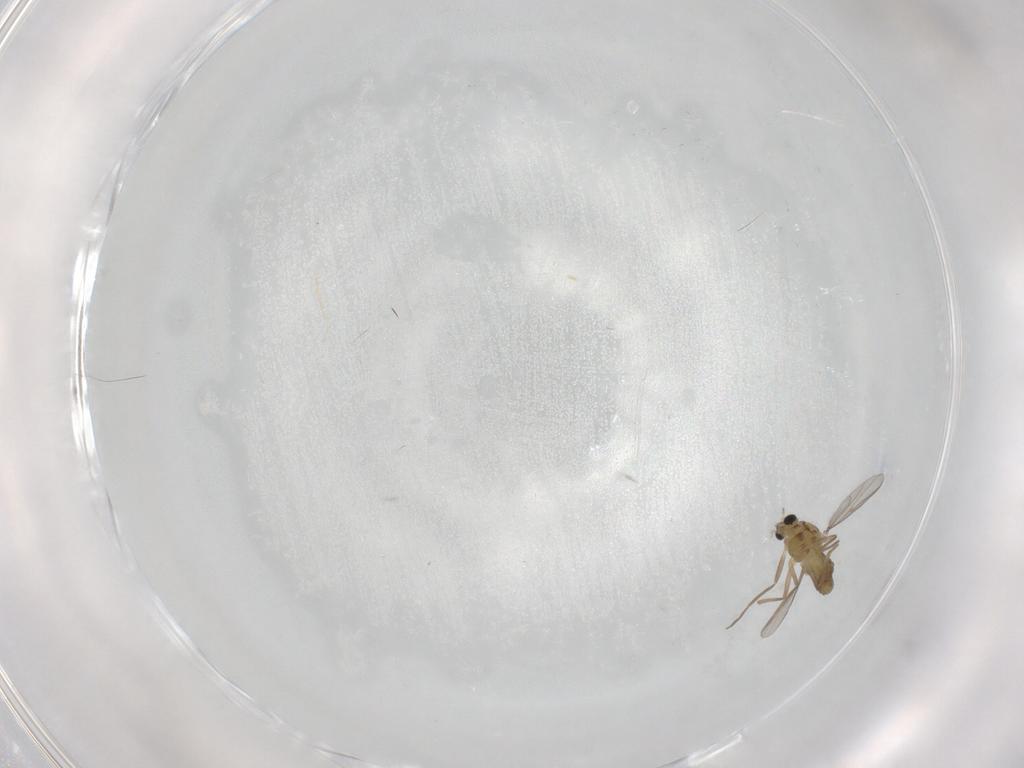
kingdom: Animalia
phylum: Arthropoda
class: Insecta
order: Diptera
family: Chironomidae
